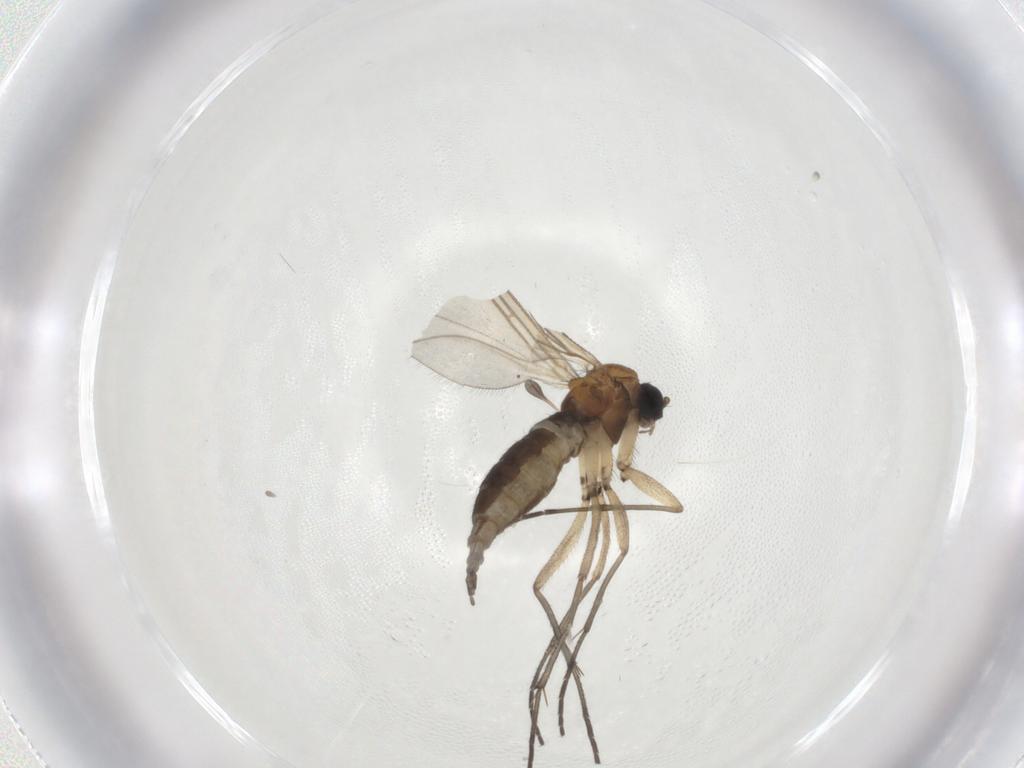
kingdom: Animalia
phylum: Arthropoda
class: Insecta
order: Diptera
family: Sciaridae
